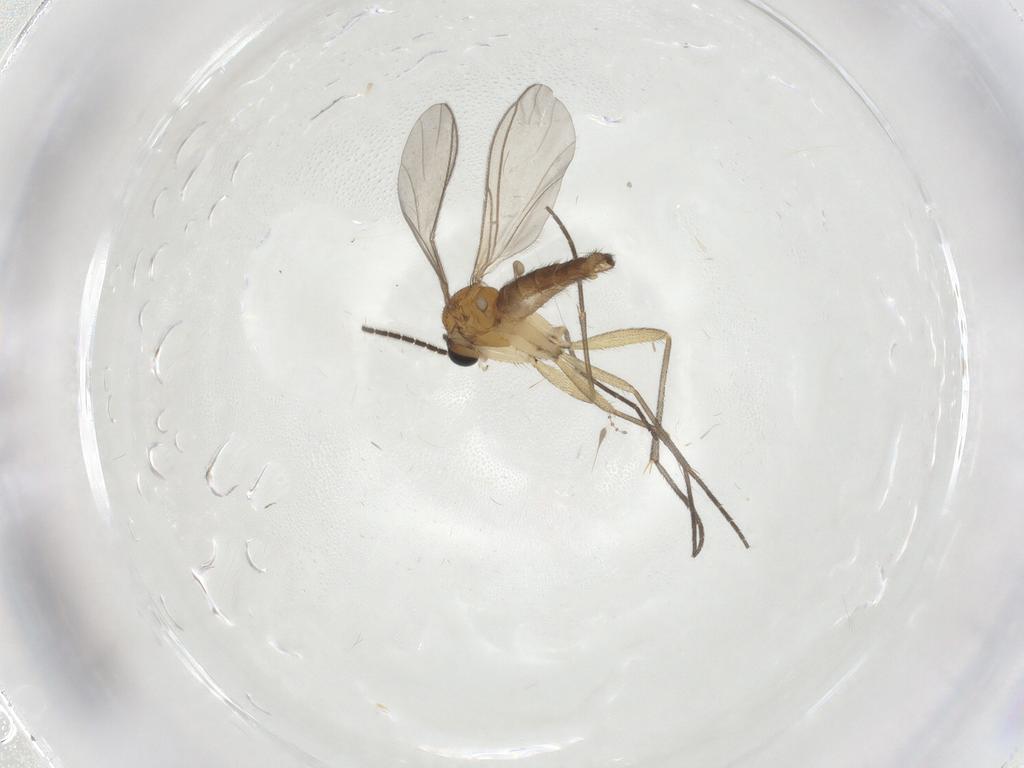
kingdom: Animalia
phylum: Arthropoda
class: Insecta
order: Diptera
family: Sciaridae
